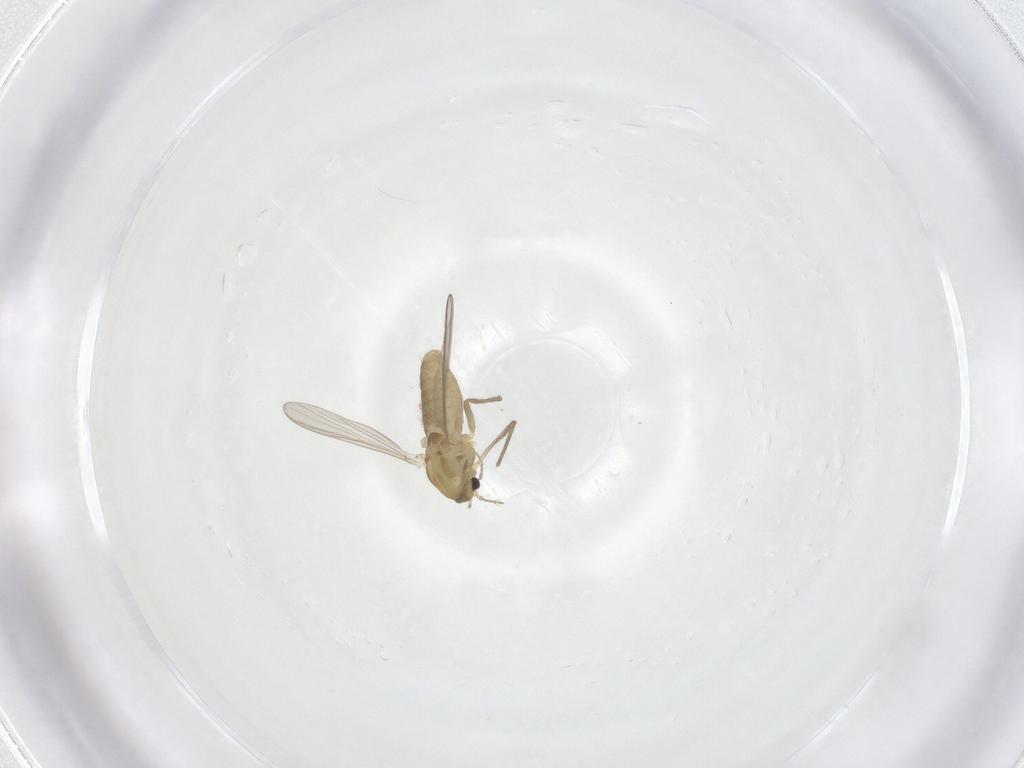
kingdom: Animalia
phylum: Arthropoda
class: Insecta
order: Diptera
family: Chironomidae
